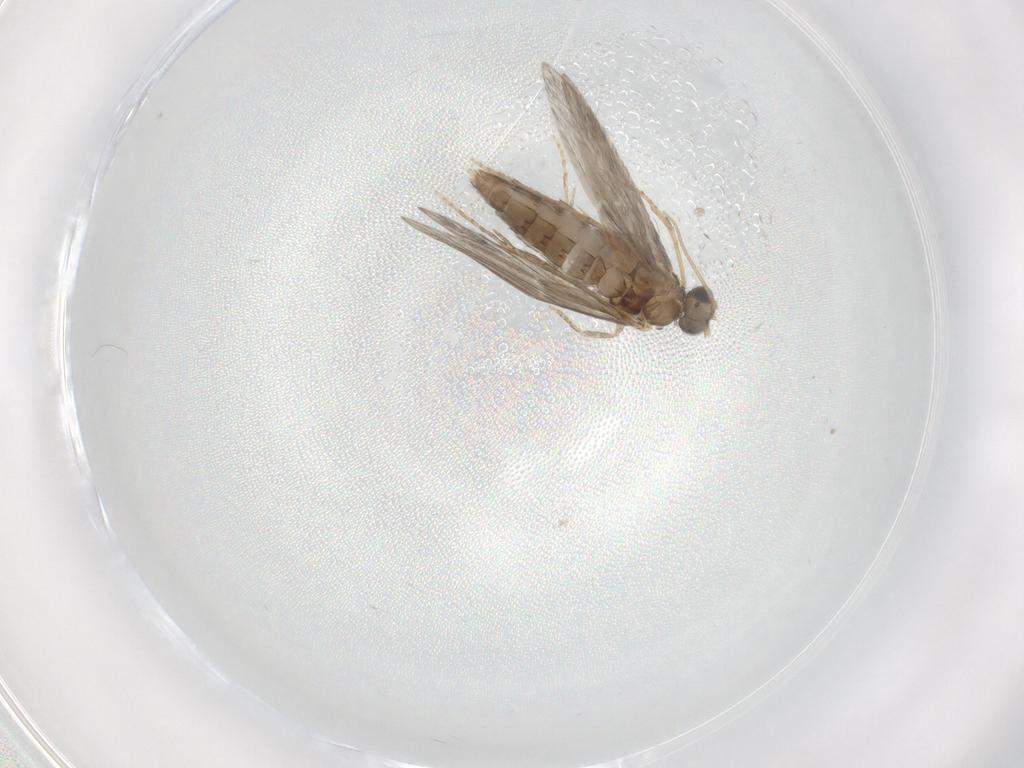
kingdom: Animalia
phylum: Arthropoda
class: Insecta
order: Trichoptera
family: Hydroptilidae
